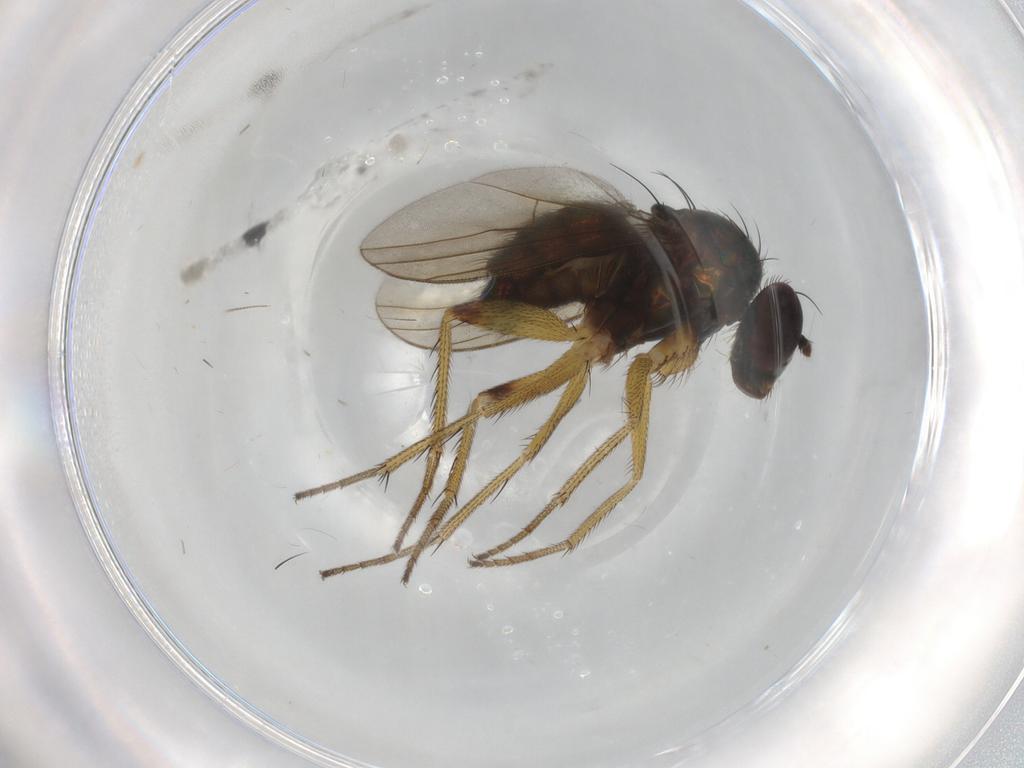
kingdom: Animalia
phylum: Arthropoda
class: Insecta
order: Diptera
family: Dolichopodidae
